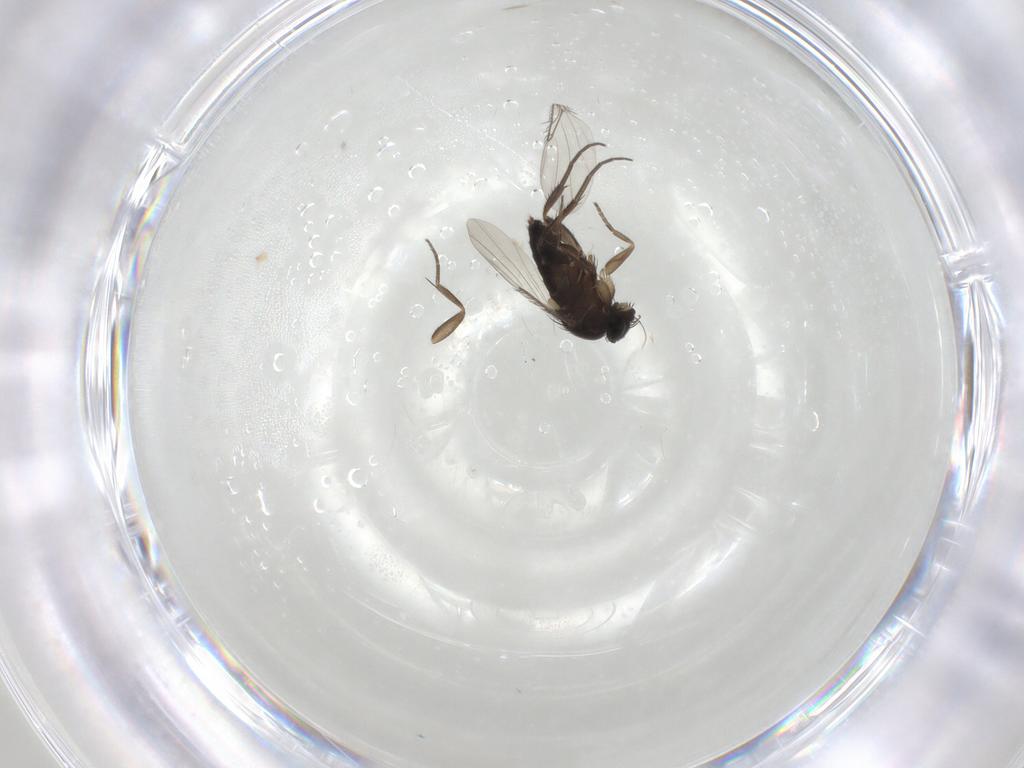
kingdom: Animalia
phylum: Arthropoda
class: Insecta
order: Diptera
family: Phoridae
